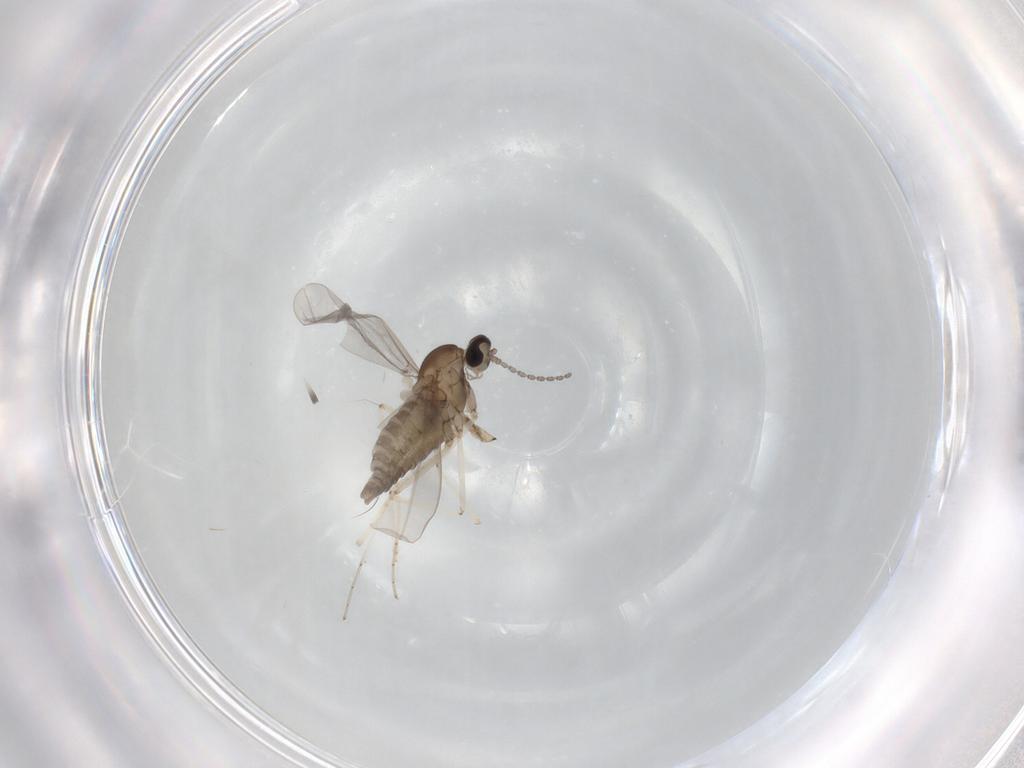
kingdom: Animalia
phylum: Arthropoda
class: Insecta
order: Diptera
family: Cecidomyiidae
